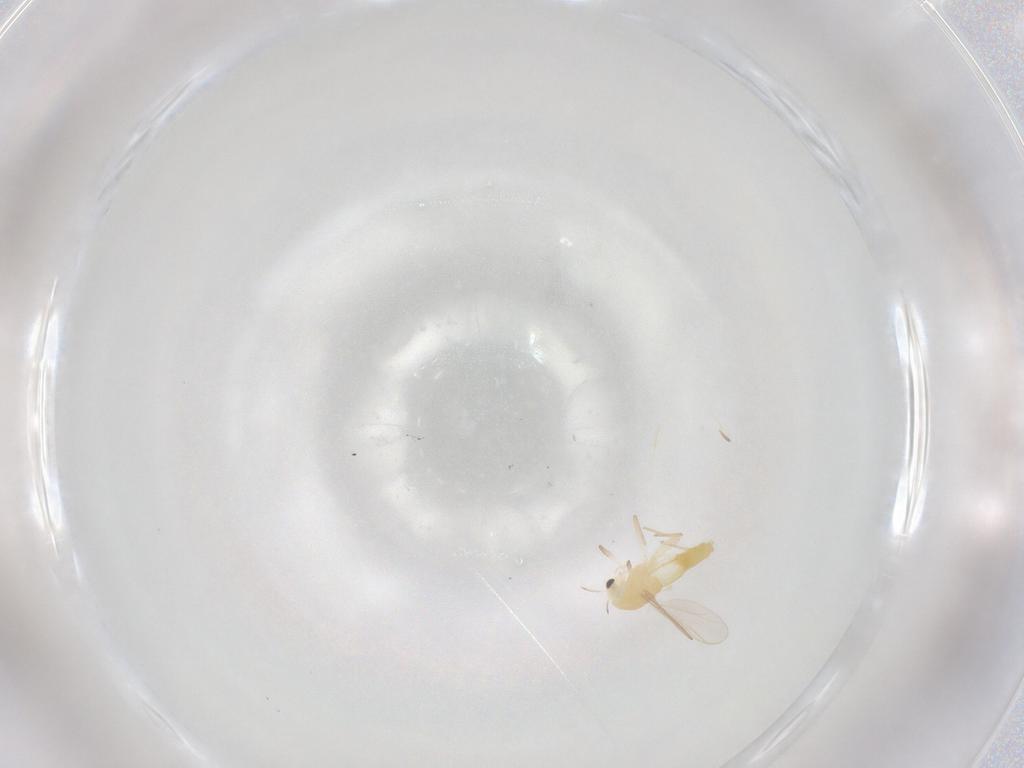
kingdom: Animalia
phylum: Arthropoda
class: Insecta
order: Diptera
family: Chironomidae
